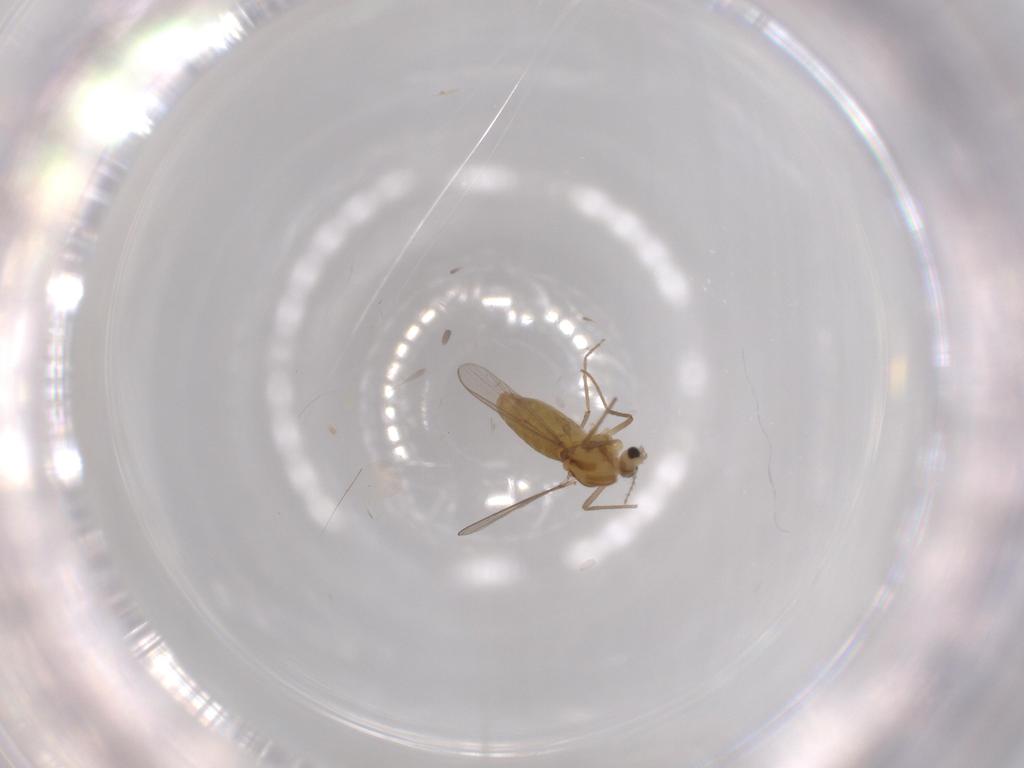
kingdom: Animalia
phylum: Arthropoda
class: Insecta
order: Diptera
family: Chironomidae
